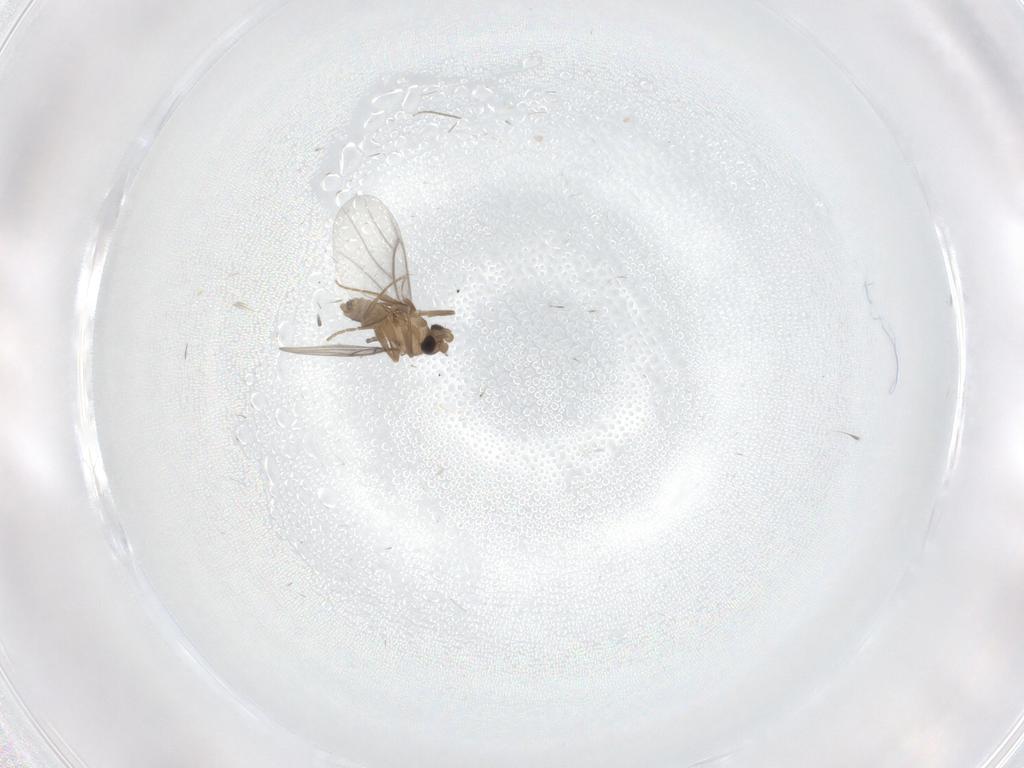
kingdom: Animalia
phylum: Arthropoda
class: Insecta
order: Diptera
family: Chironomidae
